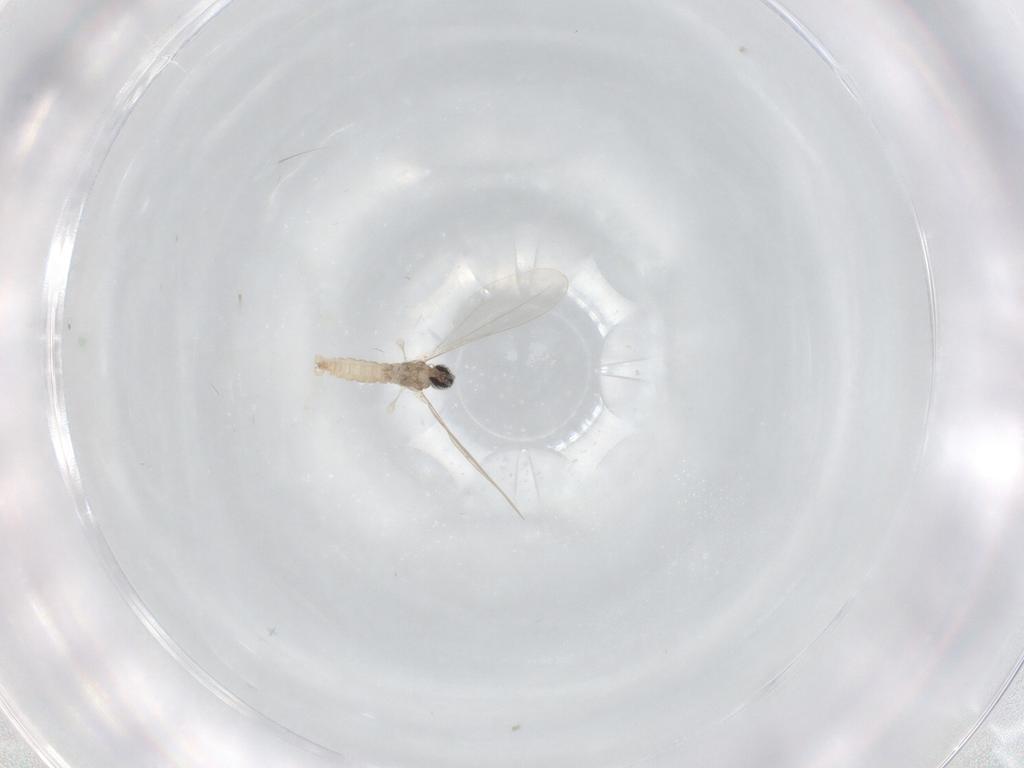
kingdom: Animalia
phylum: Arthropoda
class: Insecta
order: Diptera
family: Cecidomyiidae
